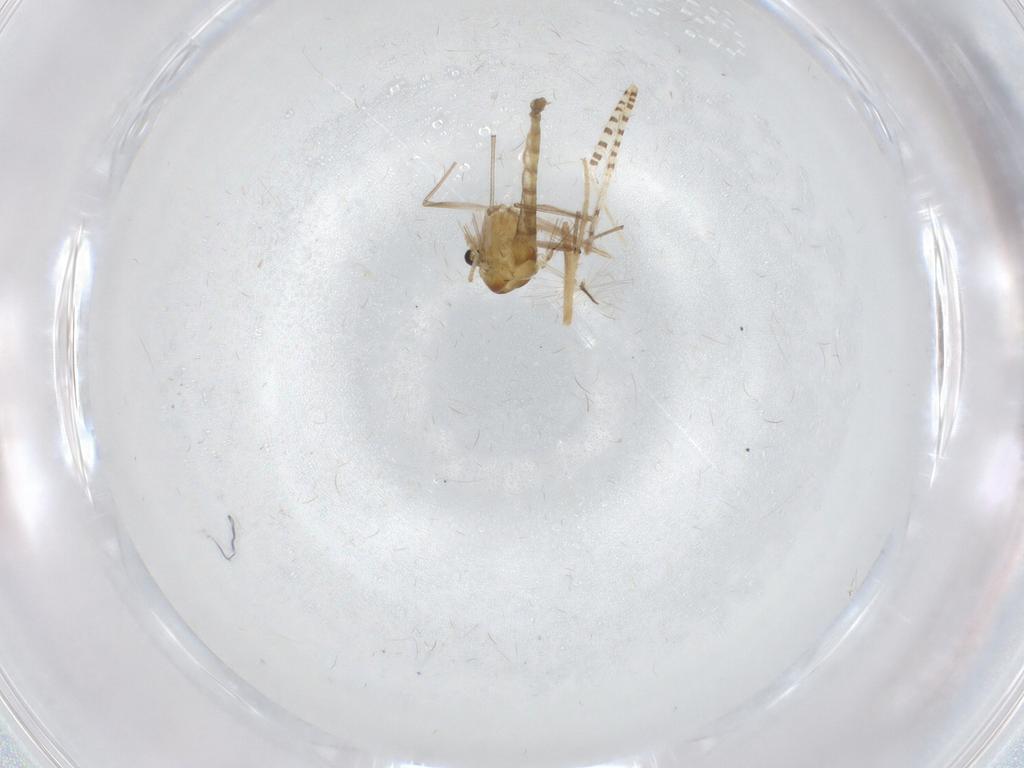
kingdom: Animalia
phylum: Arthropoda
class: Insecta
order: Diptera
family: Chironomidae
